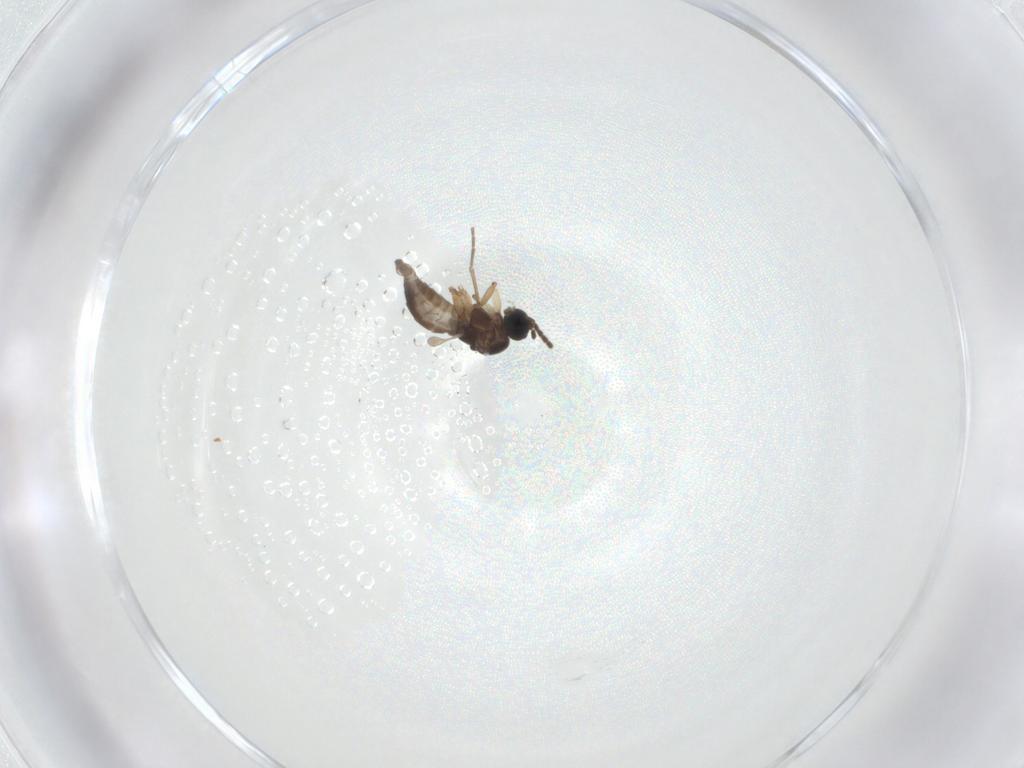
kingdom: Animalia
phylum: Arthropoda
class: Insecta
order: Diptera
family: Sciaridae
